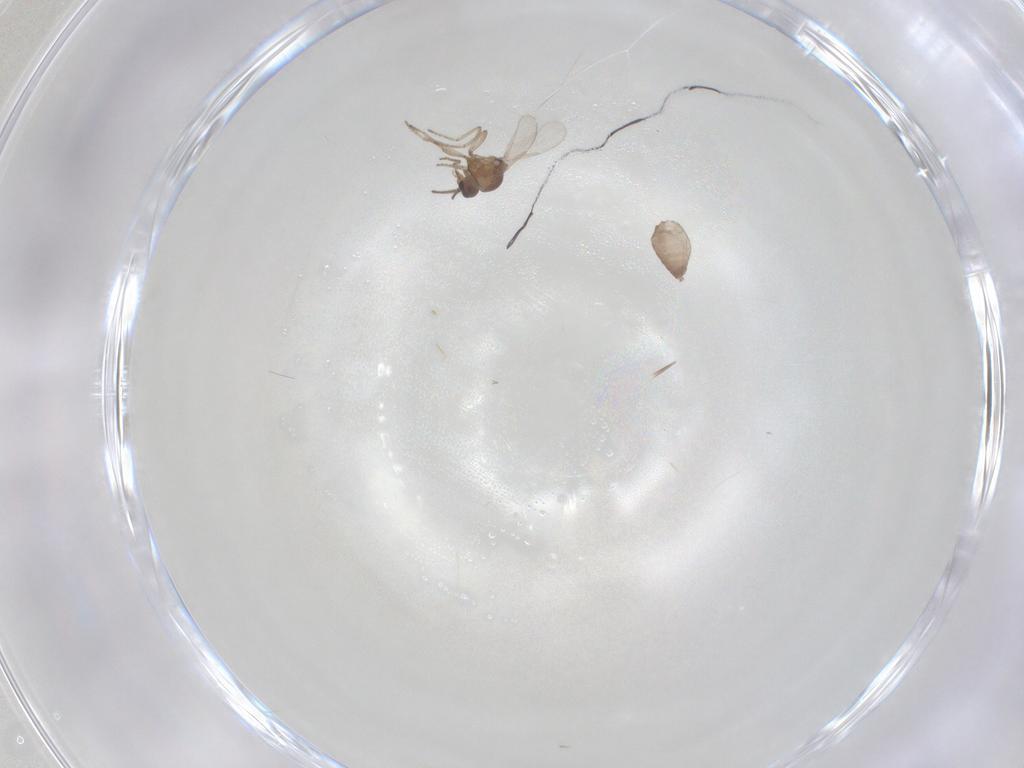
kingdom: Animalia
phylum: Arthropoda
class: Insecta
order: Diptera
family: Ceratopogonidae
